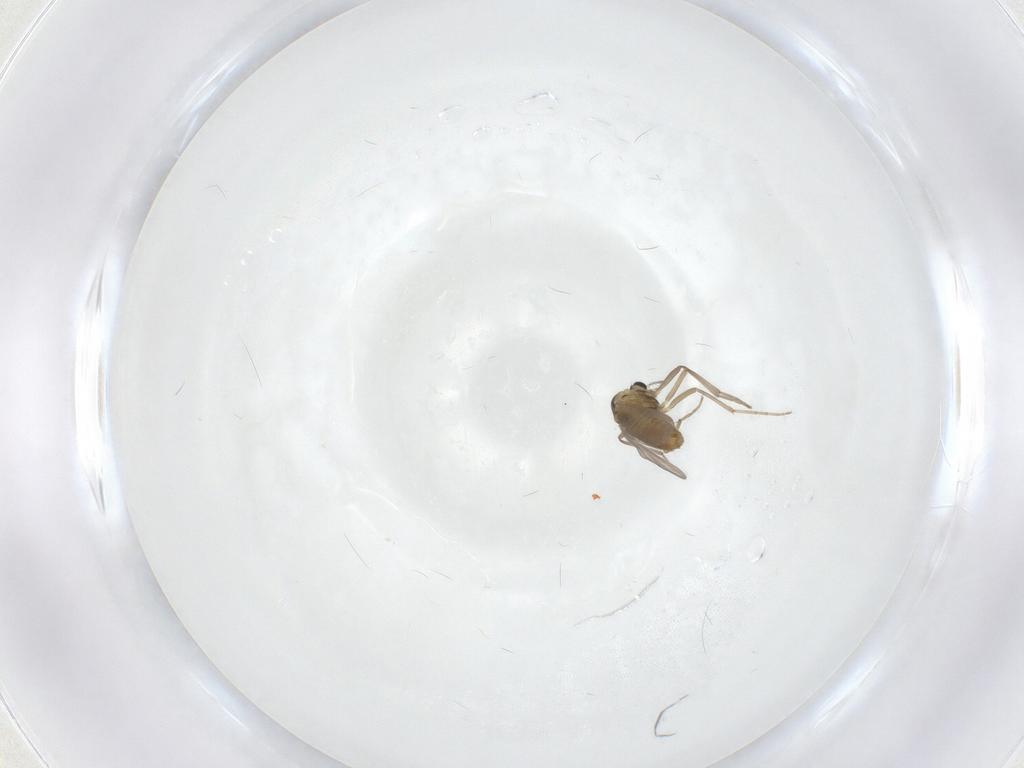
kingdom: Animalia
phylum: Arthropoda
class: Insecta
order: Diptera
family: Chironomidae
